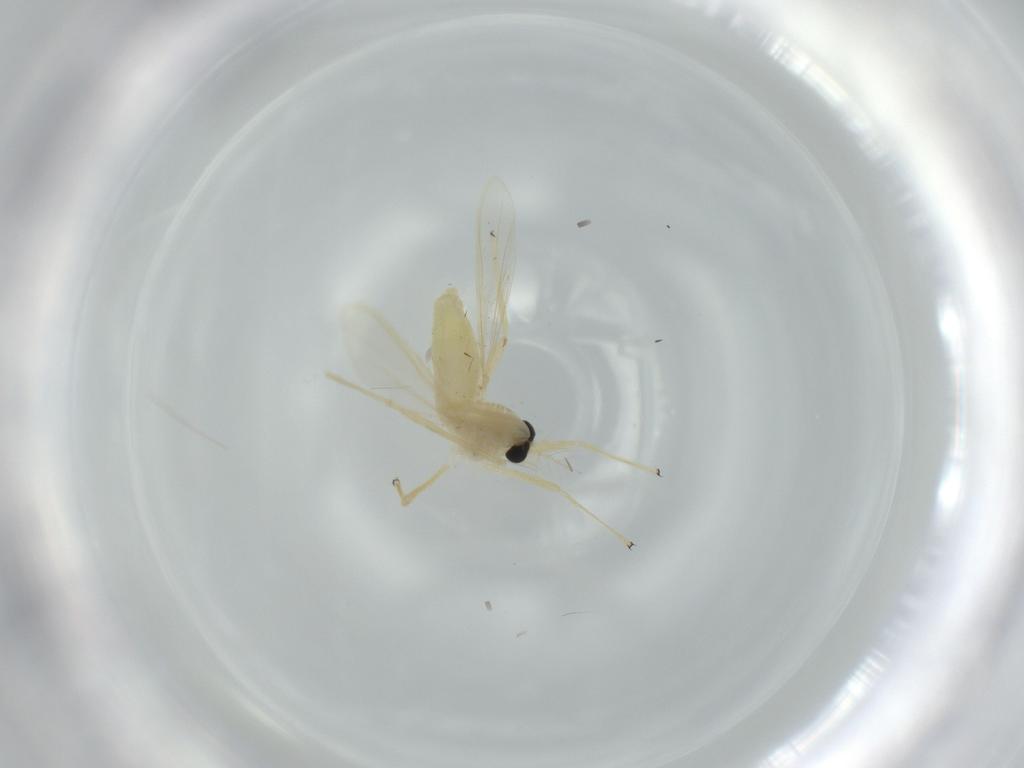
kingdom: Animalia
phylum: Arthropoda
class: Insecta
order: Diptera
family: Chironomidae
